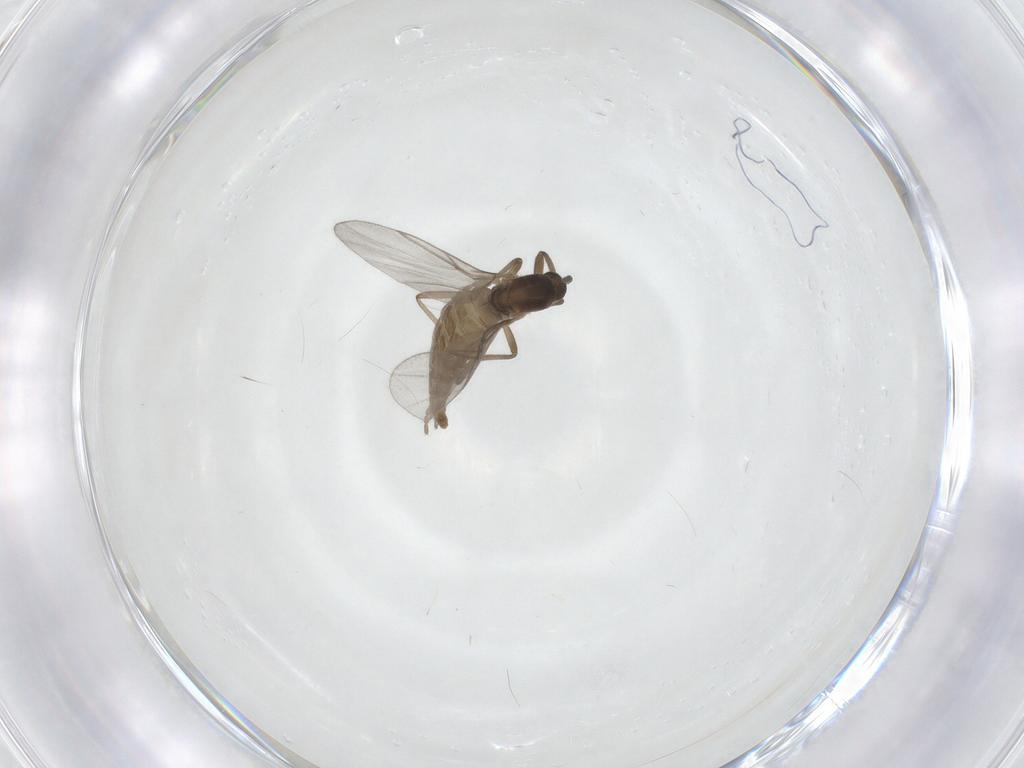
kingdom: Animalia
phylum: Arthropoda
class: Insecta
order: Diptera
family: Cecidomyiidae
